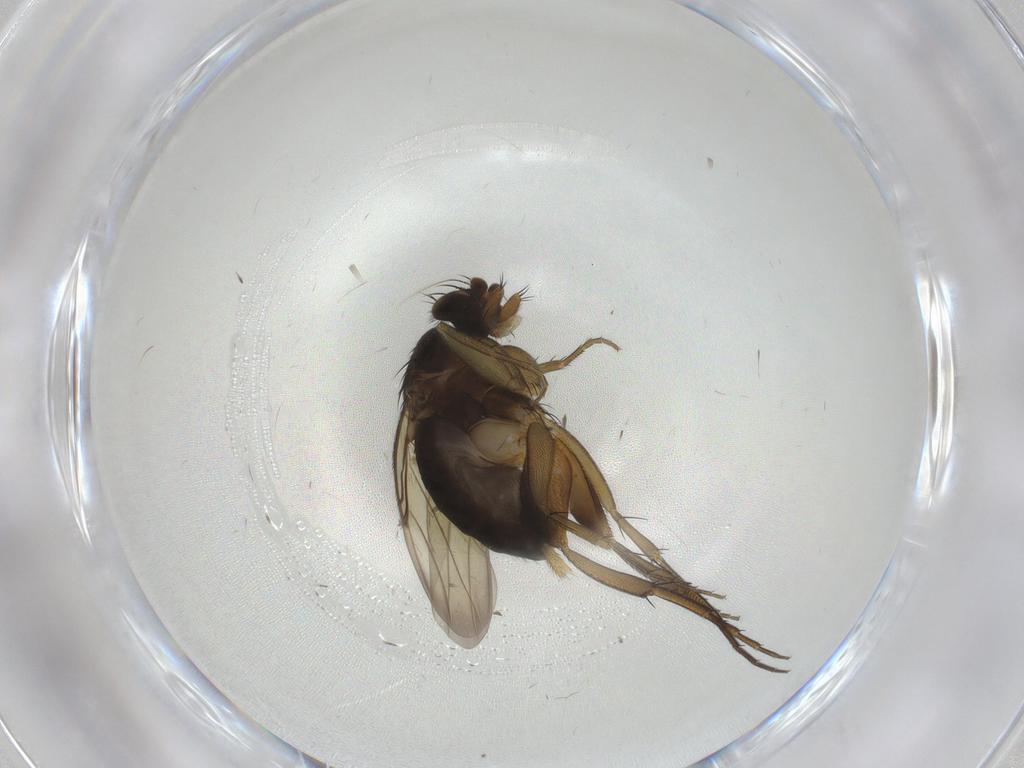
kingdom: Animalia
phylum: Arthropoda
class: Insecta
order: Diptera
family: Phoridae
